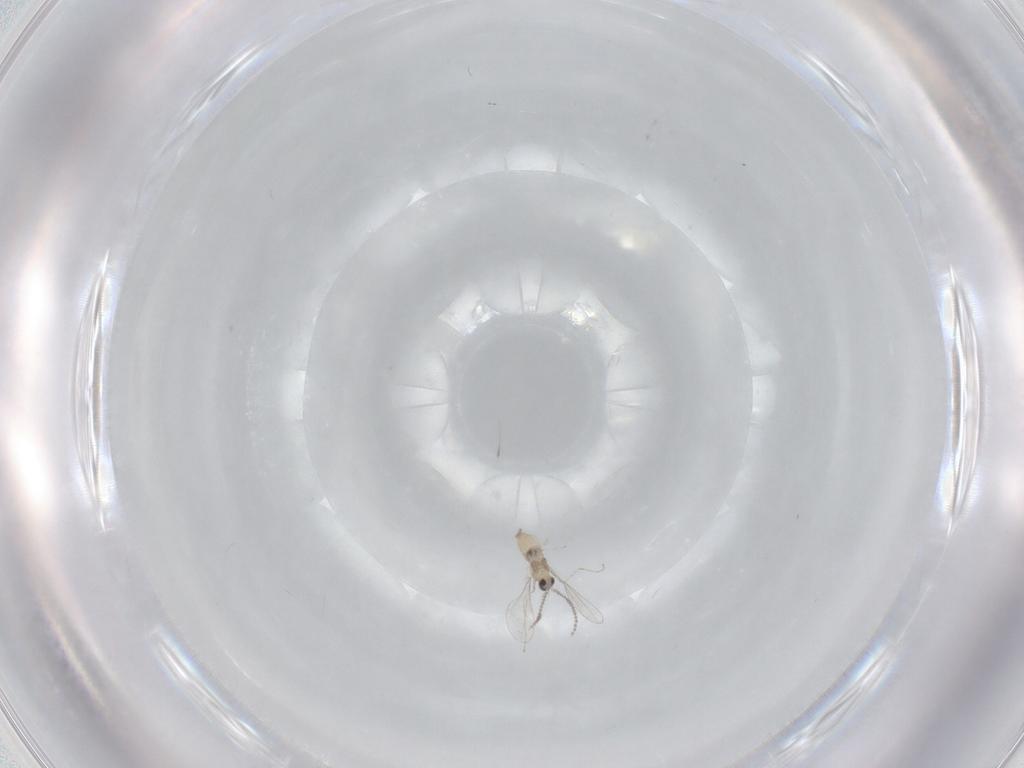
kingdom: Animalia
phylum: Arthropoda
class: Insecta
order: Diptera
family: Cecidomyiidae
